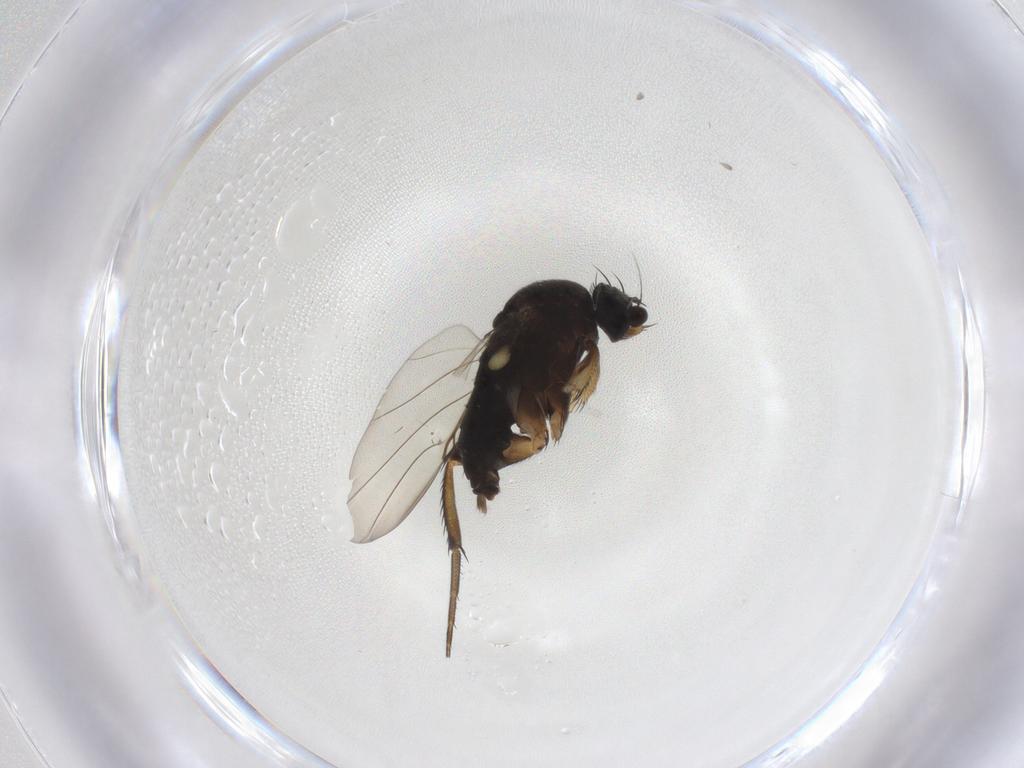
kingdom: Animalia
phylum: Arthropoda
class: Insecta
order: Diptera
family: Phoridae
